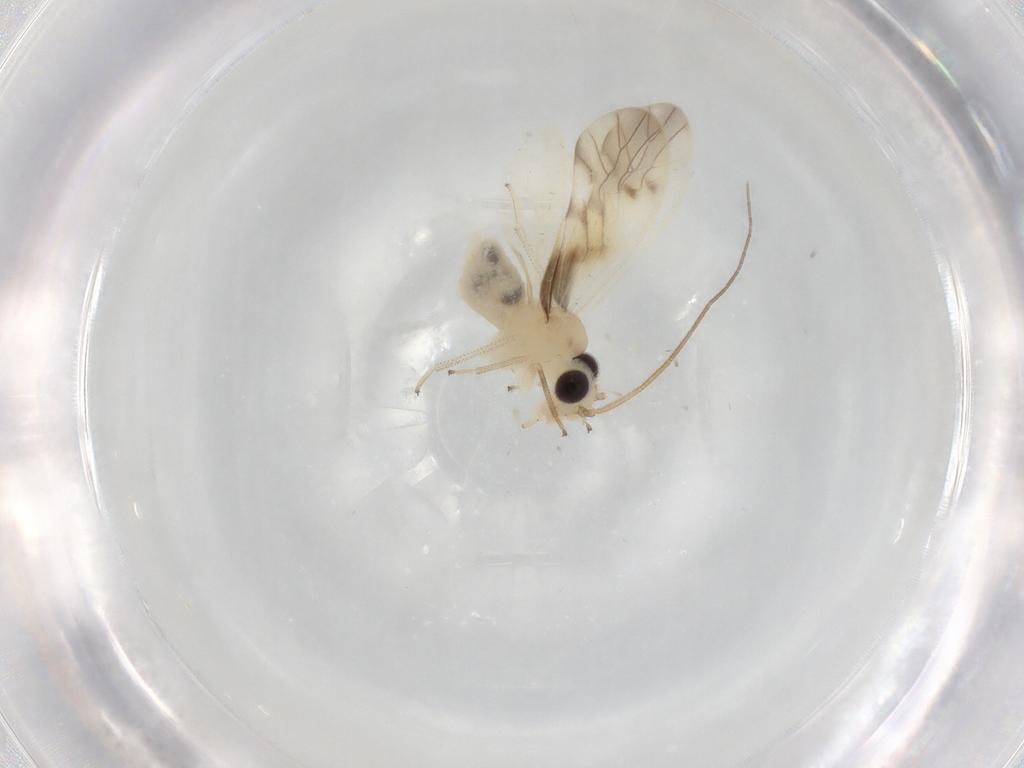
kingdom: Animalia
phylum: Arthropoda
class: Insecta
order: Psocodea
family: Caeciliusidae
